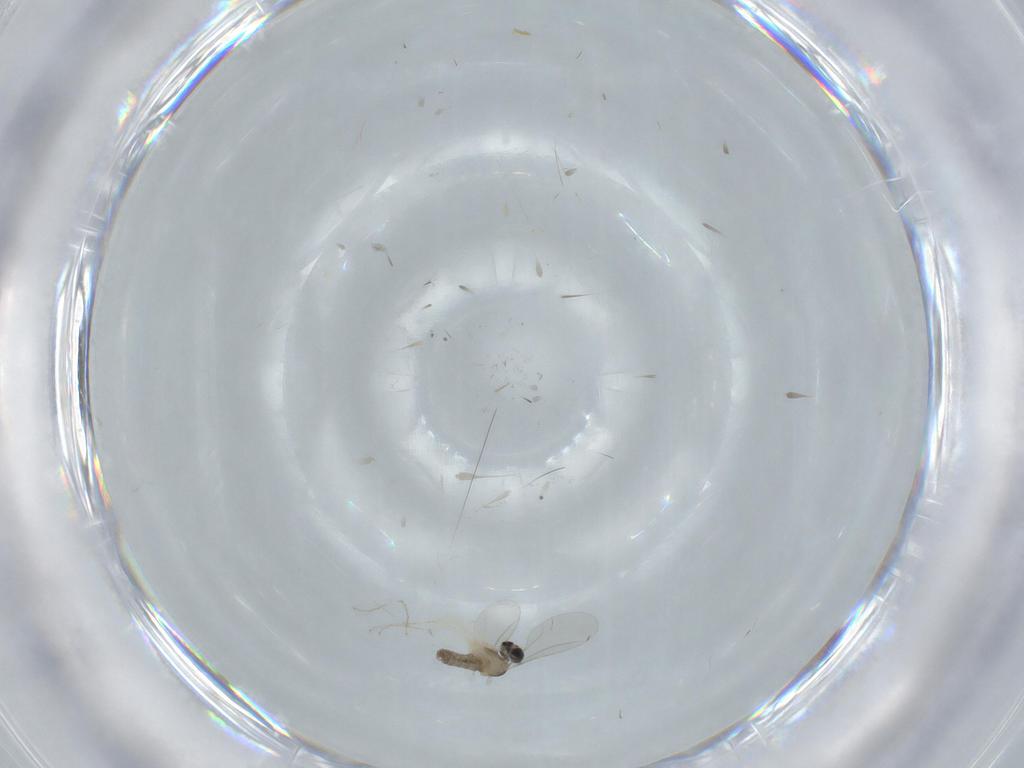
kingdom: Animalia
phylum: Arthropoda
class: Insecta
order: Diptera
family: Cecidomyiidae
